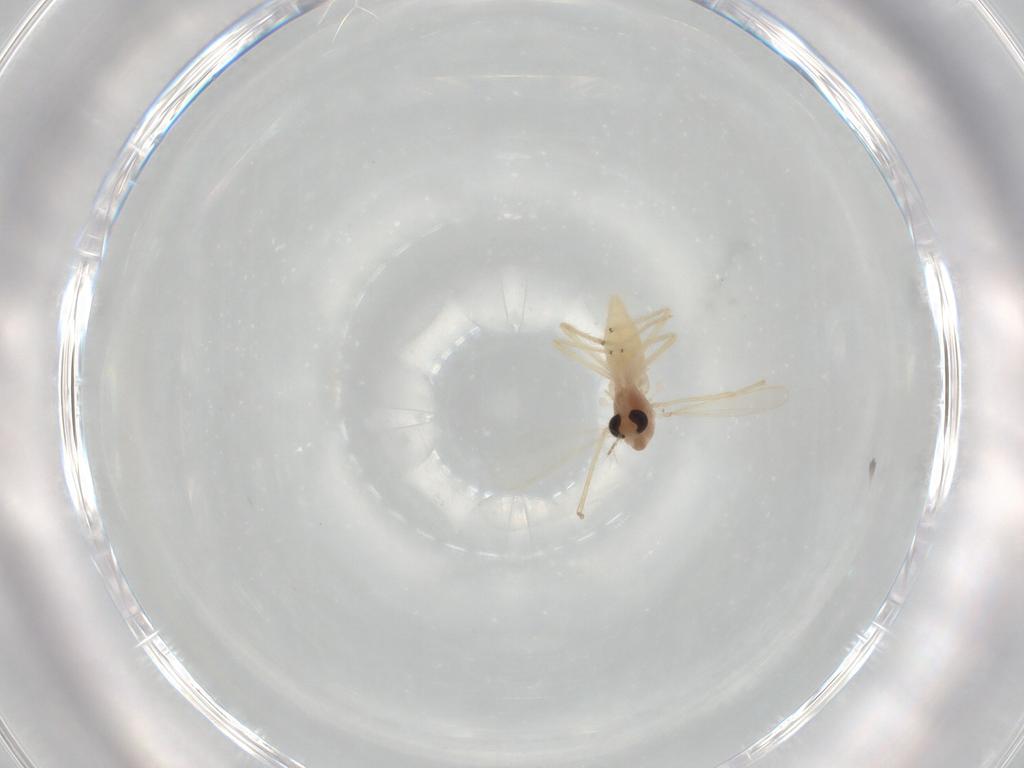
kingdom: Animalia
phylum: Arthropoda
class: Insecta
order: Diptera
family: Chironomidae
